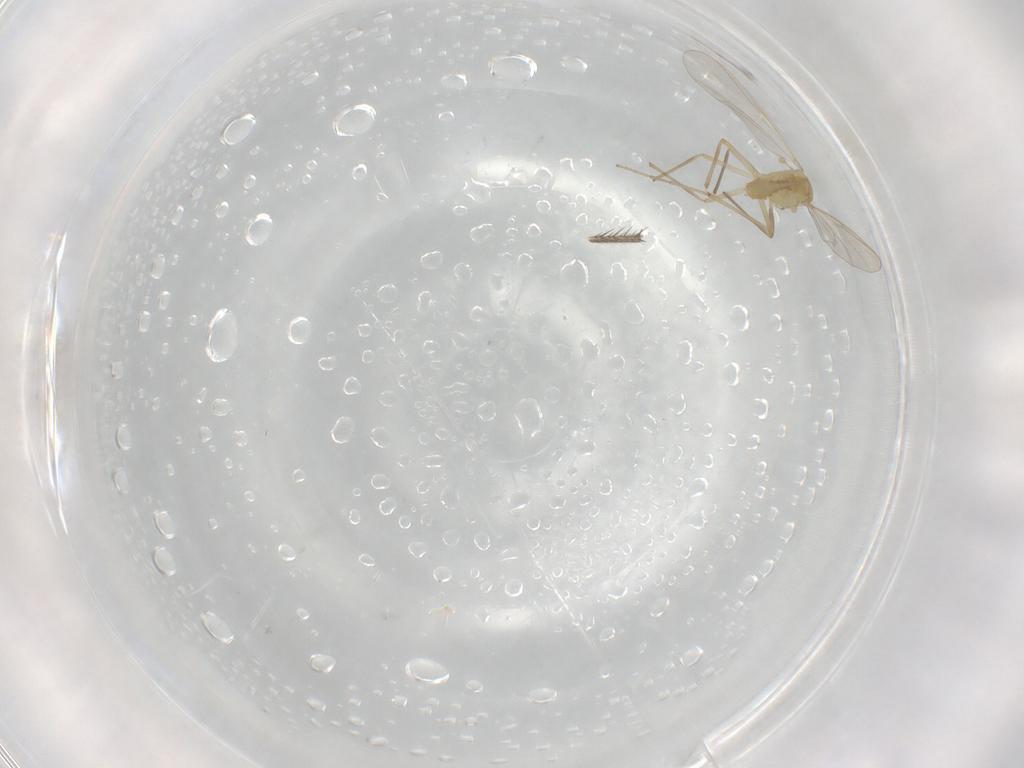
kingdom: Animalia
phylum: Arthropoda
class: Insecta
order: Diptera
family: Chironomidae
